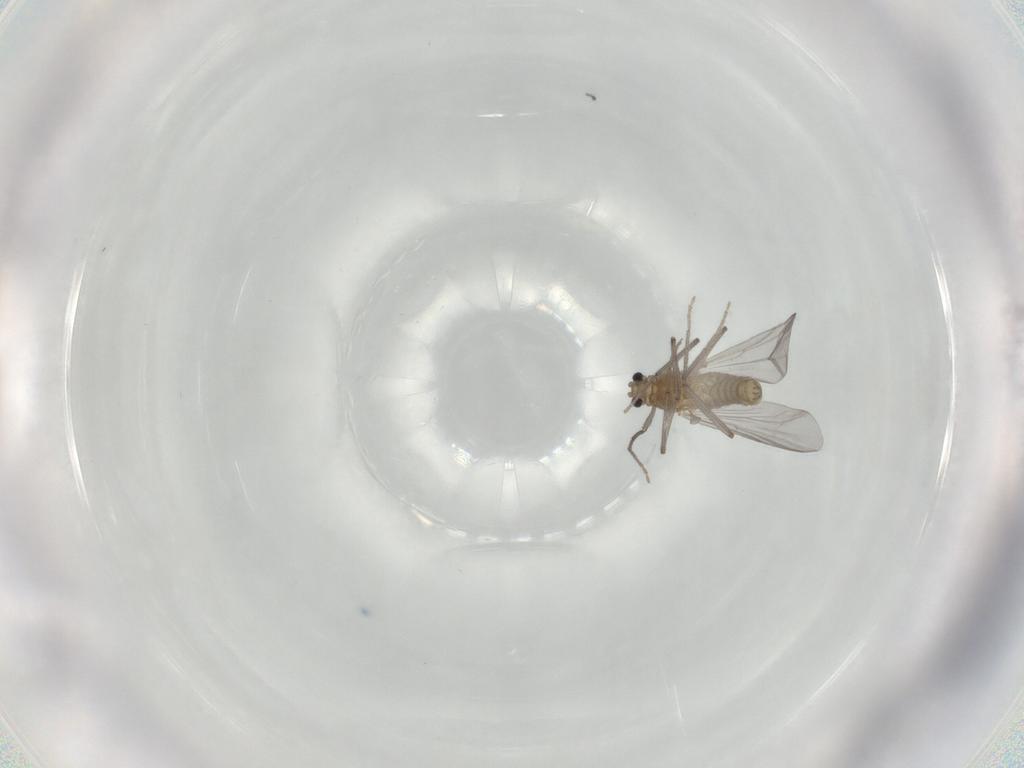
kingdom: Animalia
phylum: Arthropoda
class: Insecta
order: Diptera
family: Chironomidae
